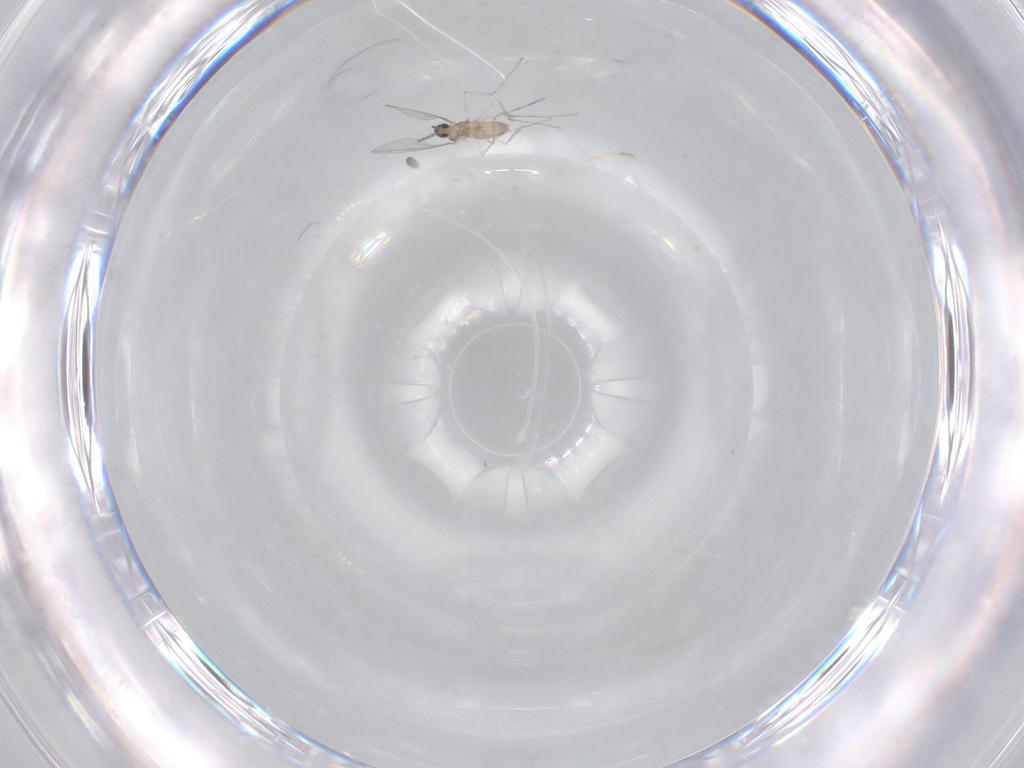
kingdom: Animalia
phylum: Arthropoda
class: Insecta
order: Diptera
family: Cecidomyiidae
